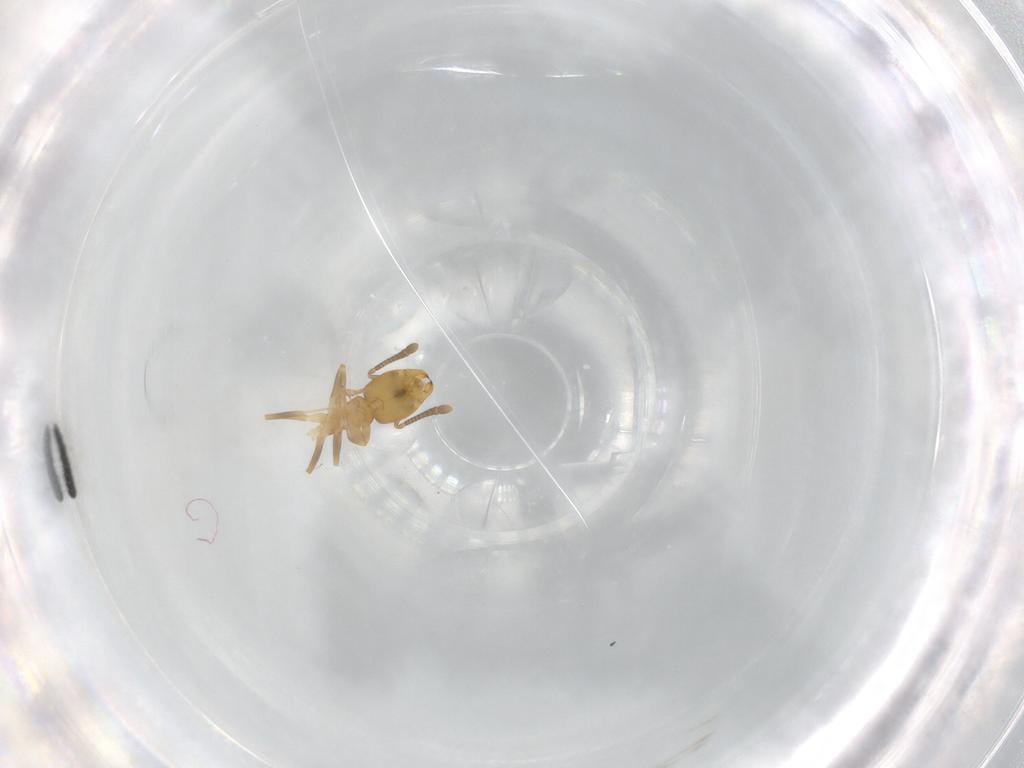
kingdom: Animalia
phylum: Arthropoda
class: Insecta
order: Diptera
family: Sciaridae
